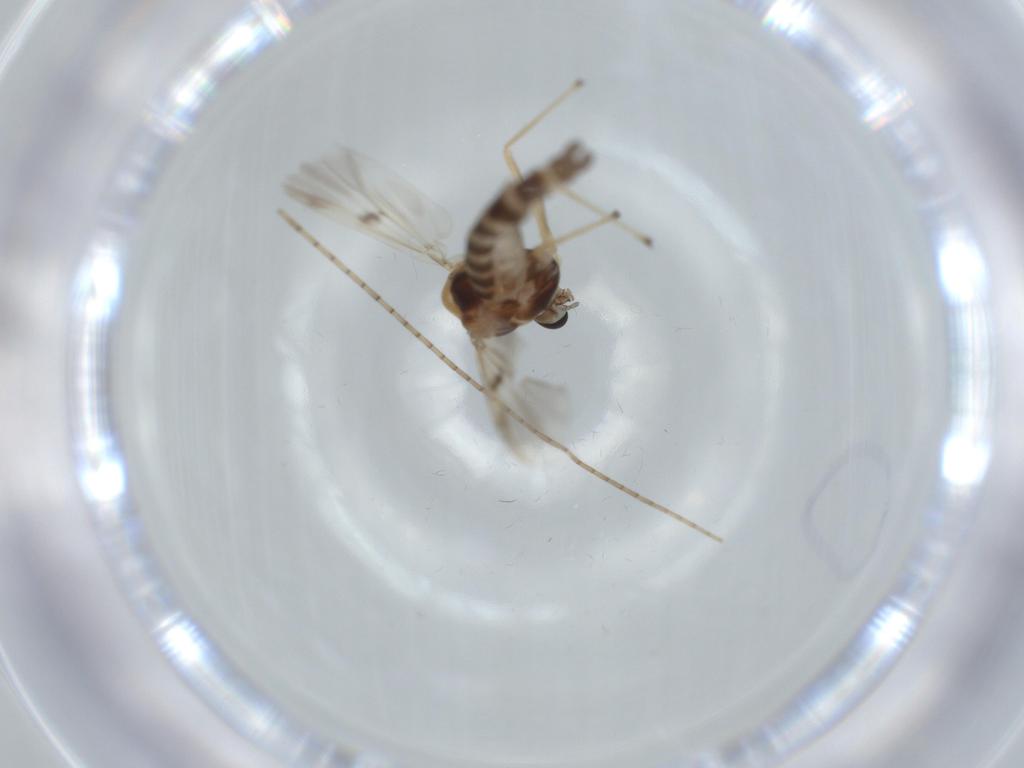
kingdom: Animalia
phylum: Arthropoda
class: Insecta
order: Diptera
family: Chironomidae
